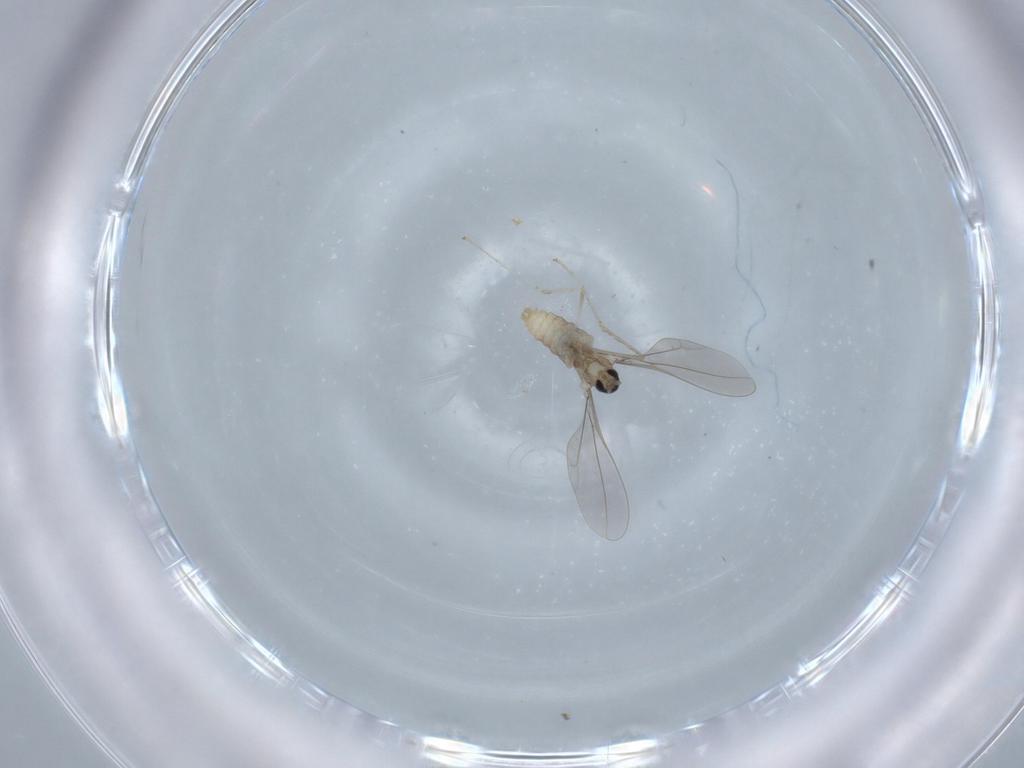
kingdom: Animalia
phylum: Arthropoda
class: Insecta
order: Diptera
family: Cecidomyiidae
